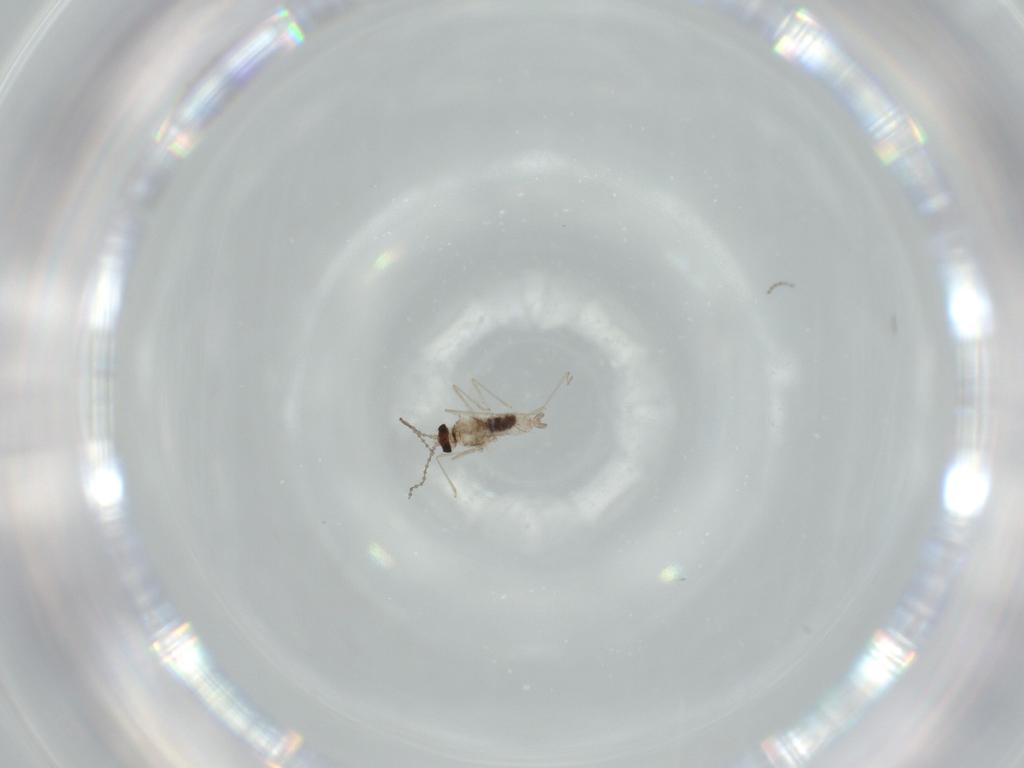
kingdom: Animalia
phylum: Arthropoda
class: Insecta
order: Diptera
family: Cecidomyiidae
